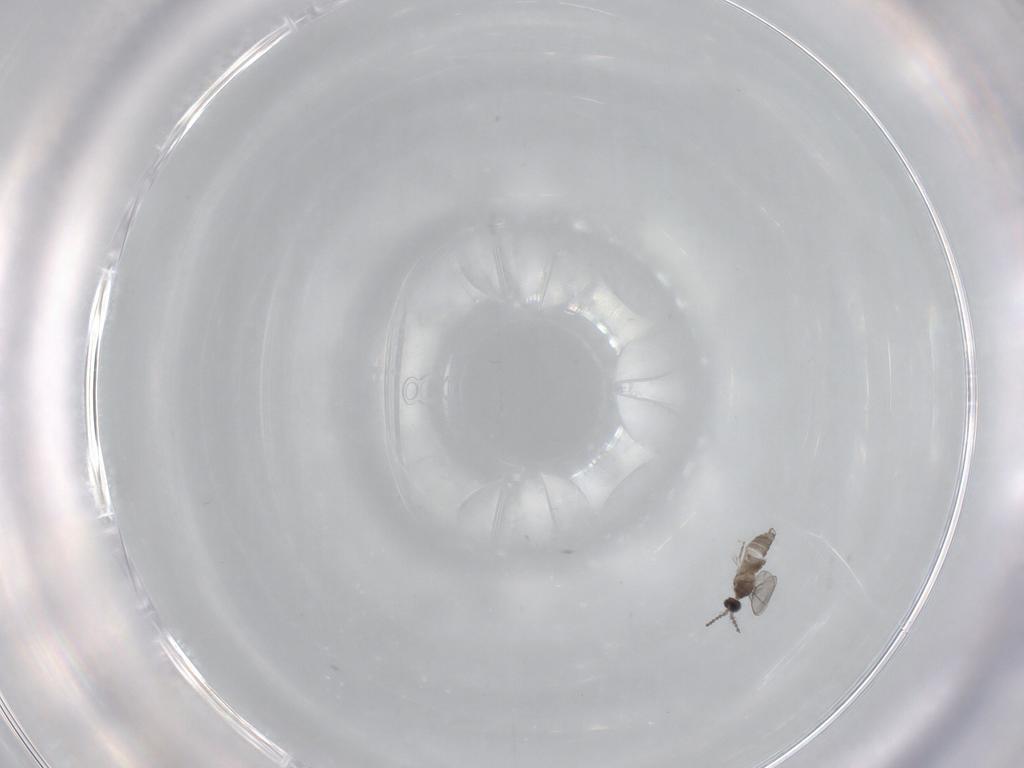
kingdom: Animalia
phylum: Arthropoda
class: Insecta
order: Diptera
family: Cecidomyiidae
